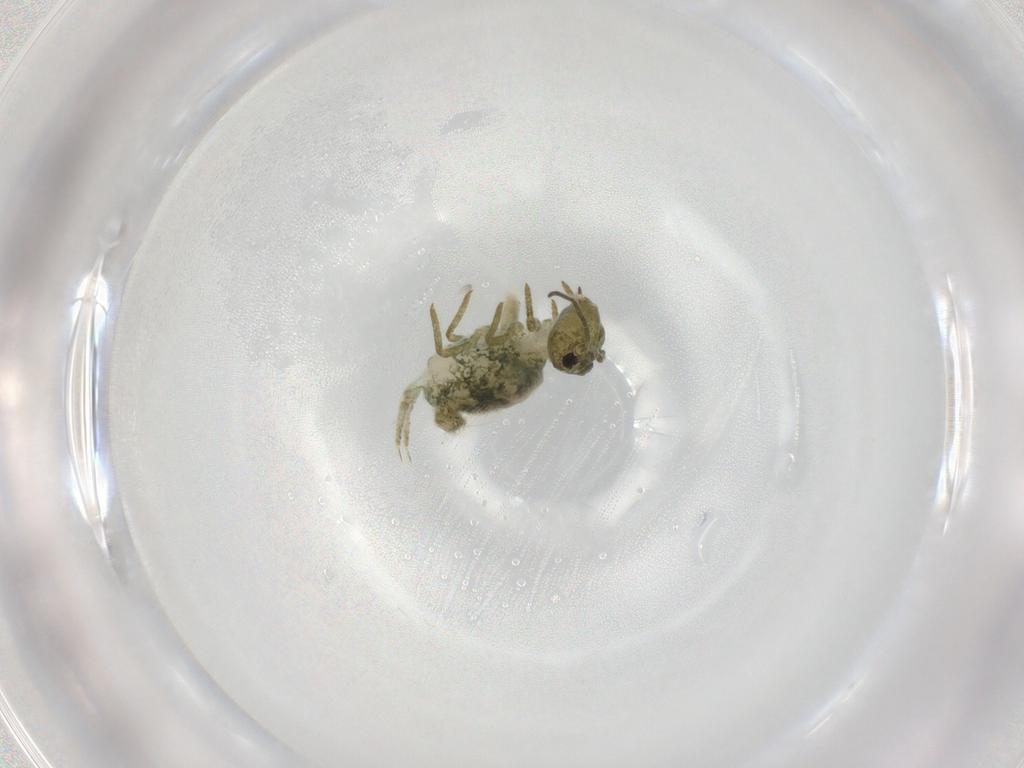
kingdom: Animalia
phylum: Arthropoda
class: Collembola
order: Symphypleona
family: Sminthuridae
